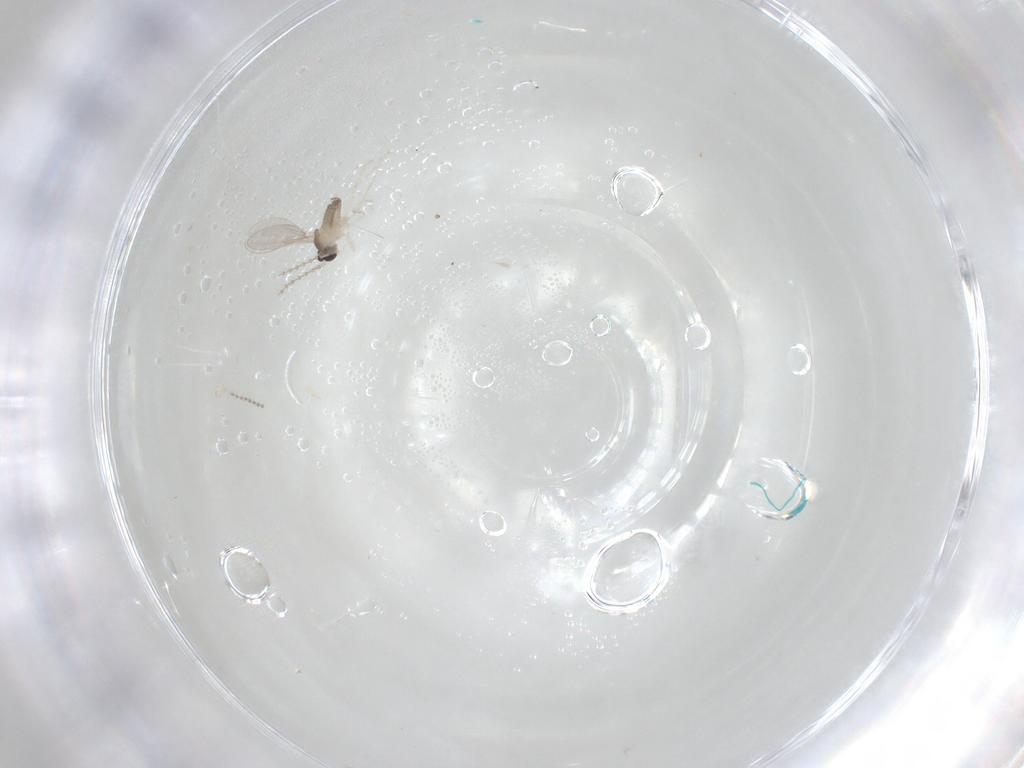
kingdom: Animalia
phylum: Arthropoda
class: Insecta
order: Diptera
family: Cecidomyiidae
